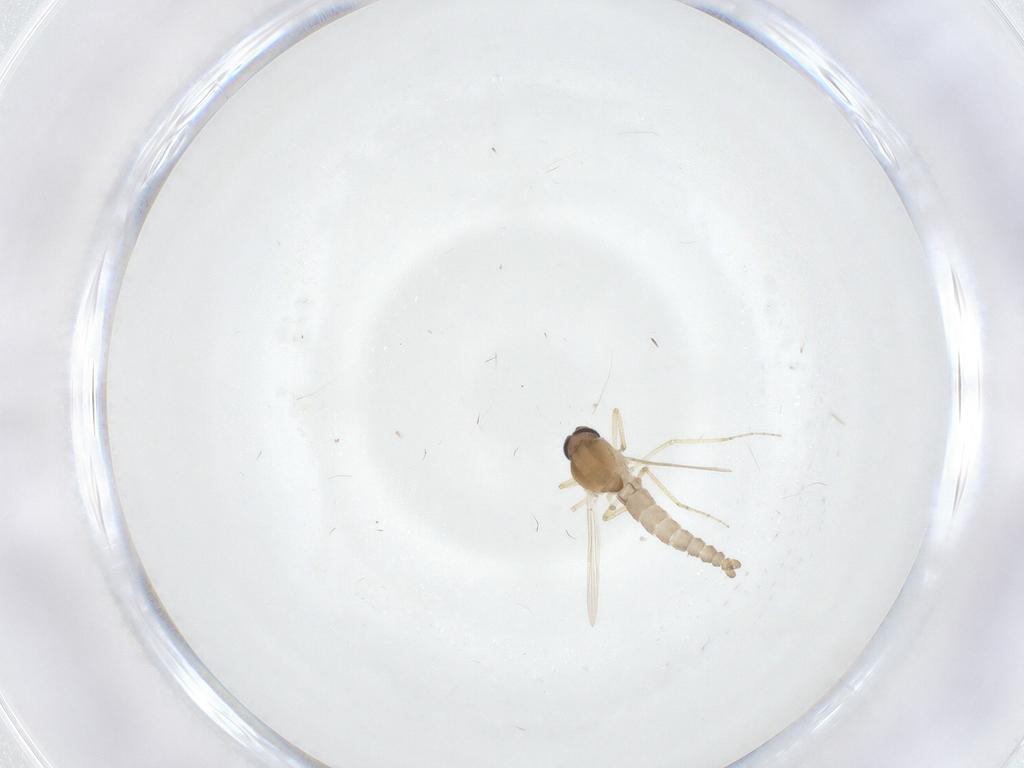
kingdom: Animalia
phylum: Arthropoda
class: Insecta
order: Diptera
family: Ceratopogonidae
